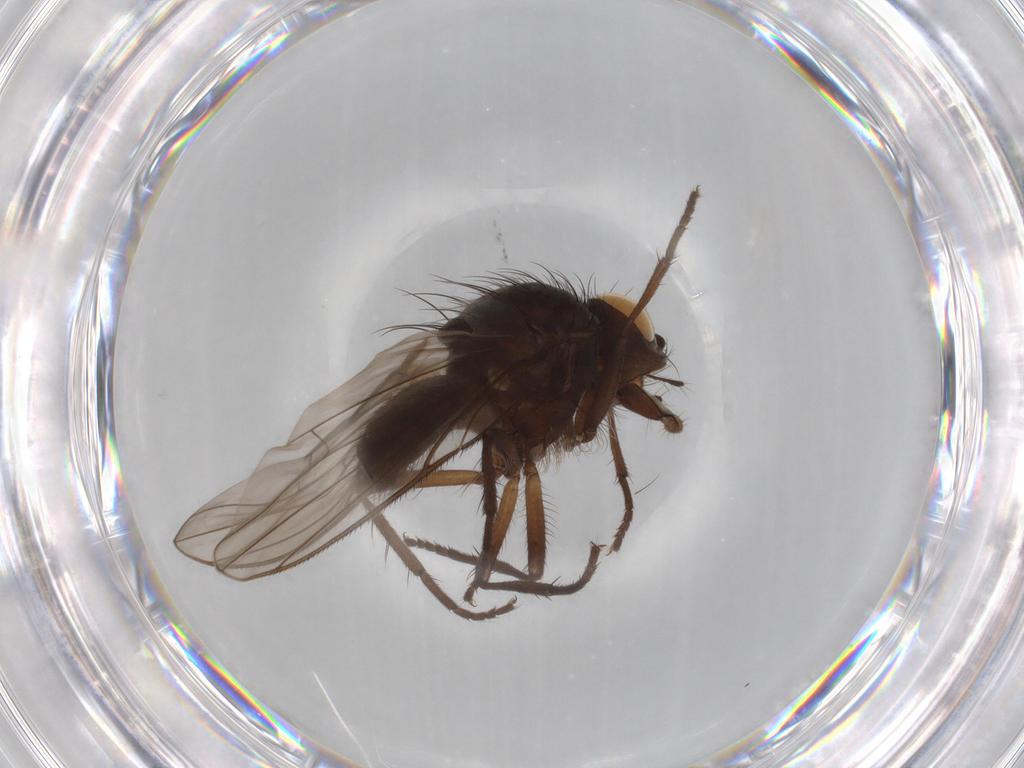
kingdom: Animalia
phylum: Arthropoda
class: Insecta
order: Diptera
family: Anthomyiidae
